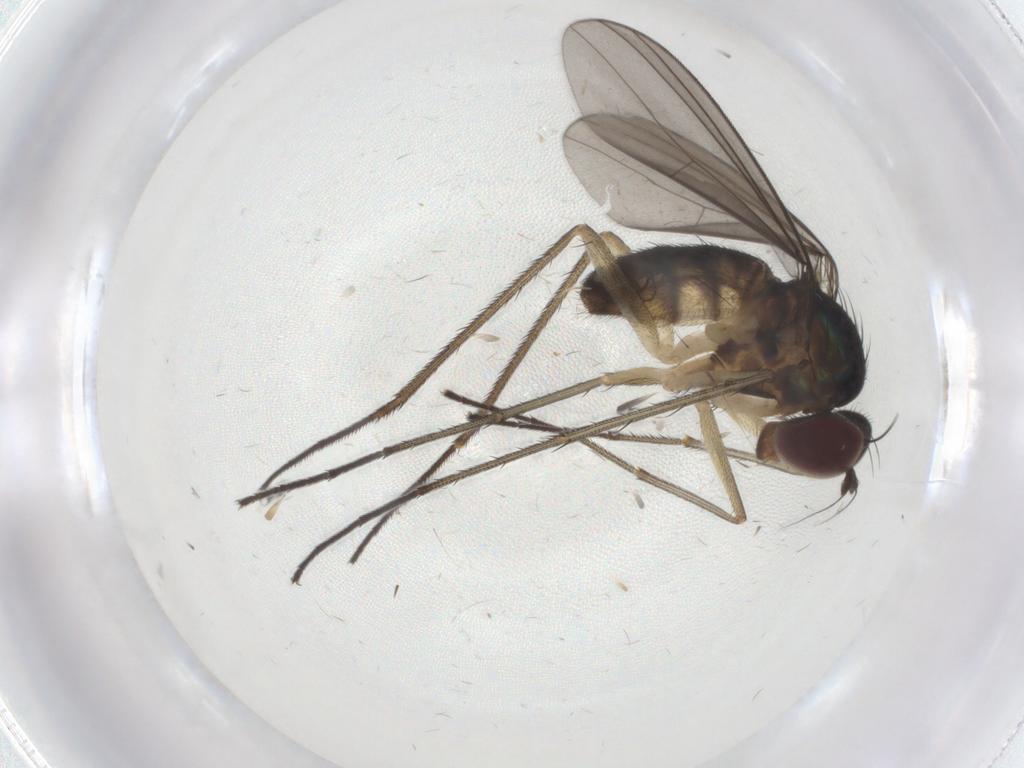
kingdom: Animalia
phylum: Arthropoda
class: Insecta
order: Diptera
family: Dolichopodidae
